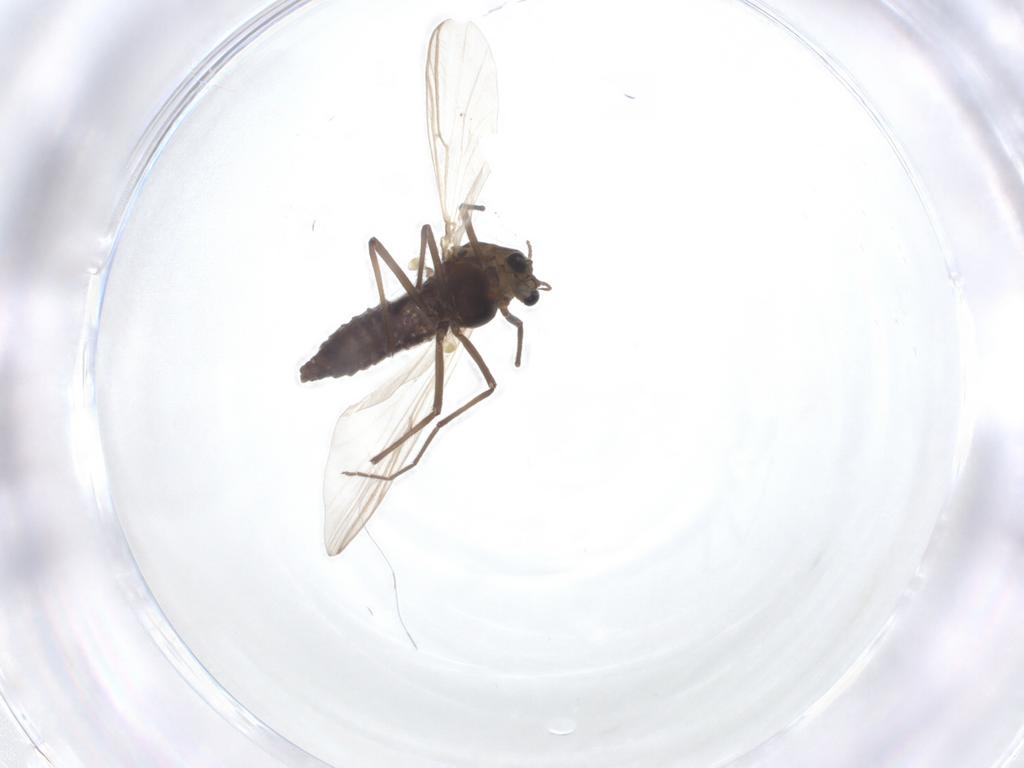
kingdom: Animalia
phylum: Arthropoda
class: Insecta
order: Diptera
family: Chironomidae
